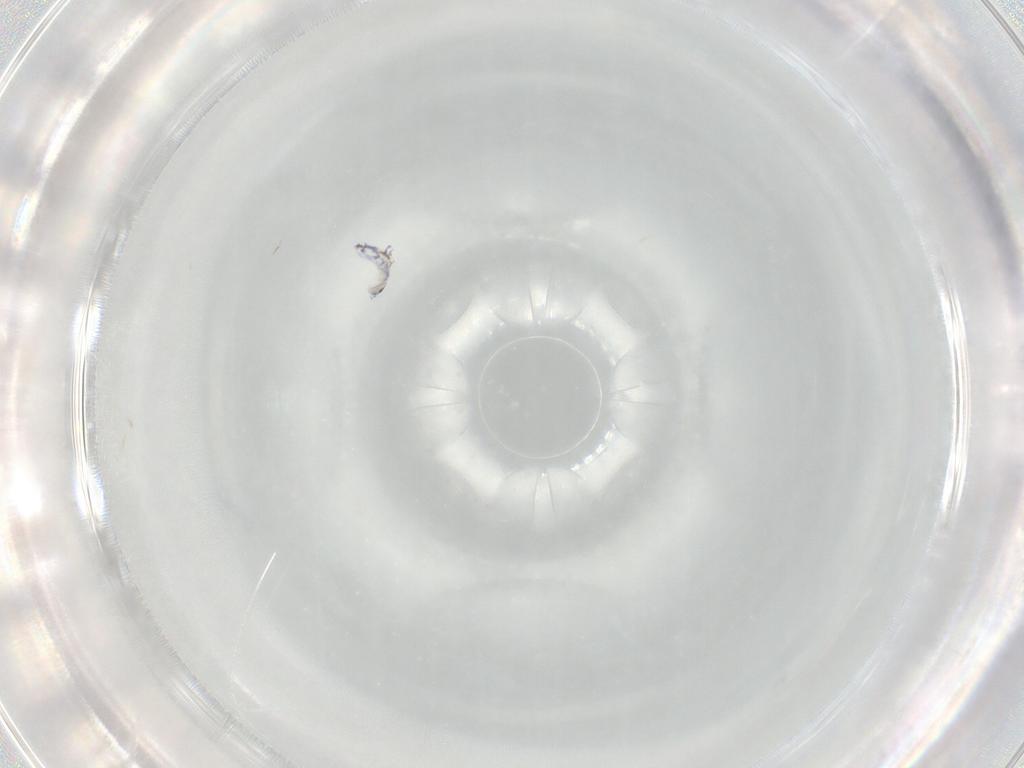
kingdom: Animalia
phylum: Arthropoda
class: Collembola
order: Entomobryomorpha
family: Entomobryidae
